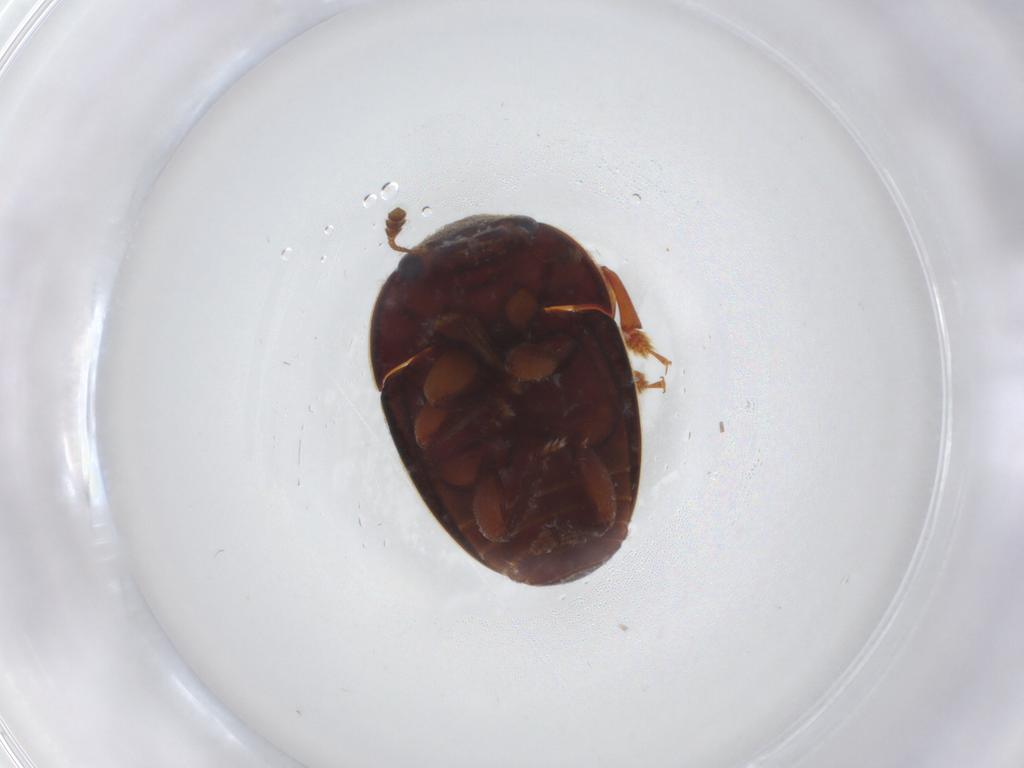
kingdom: Animalia
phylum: Arthropoda
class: Insecta
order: Coleoptera
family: Nitidulidae
